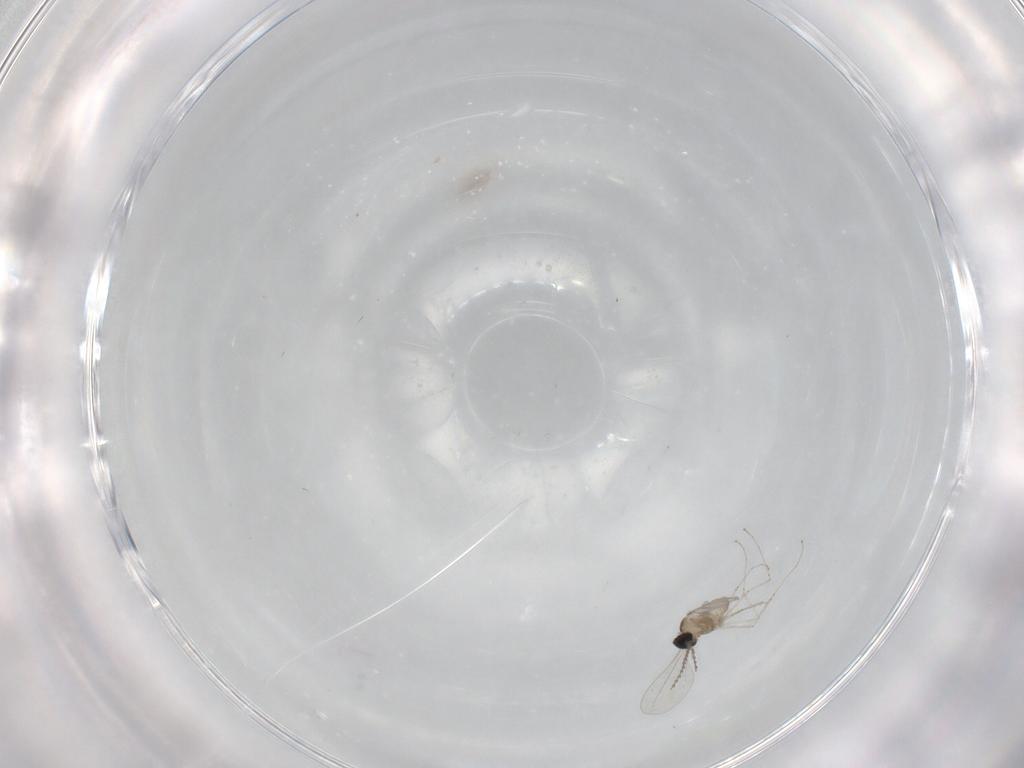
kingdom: Animalia
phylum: Arthropoda
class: Insecta
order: Diptera
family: Cecidomyiidae
